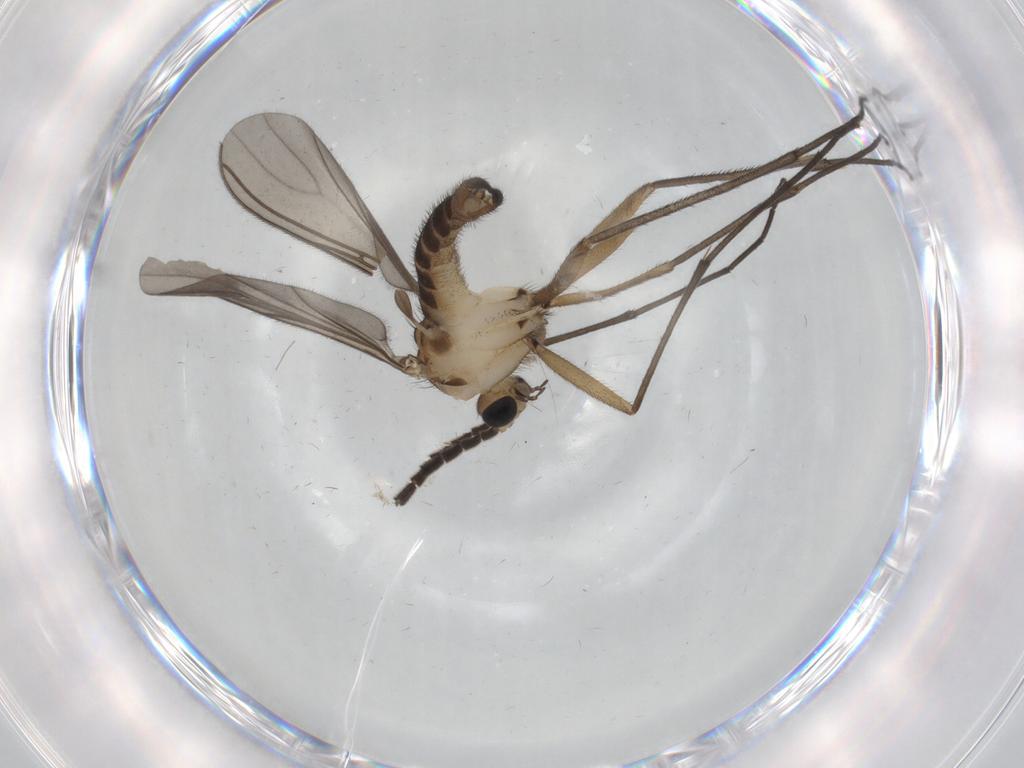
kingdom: Animalia
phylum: Arthropoda
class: Insecta
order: Diptera
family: Sciaridae
